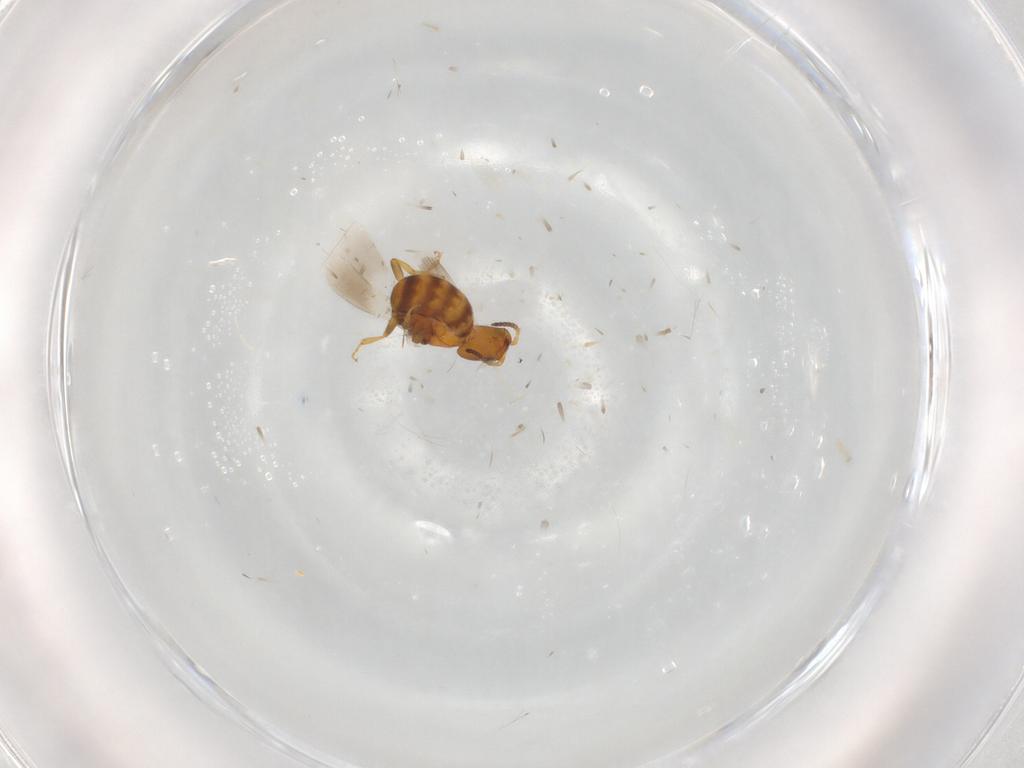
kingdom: Animalia
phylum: Arthropoda
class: Insecta
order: Hymenoptera
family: Bethylidae
